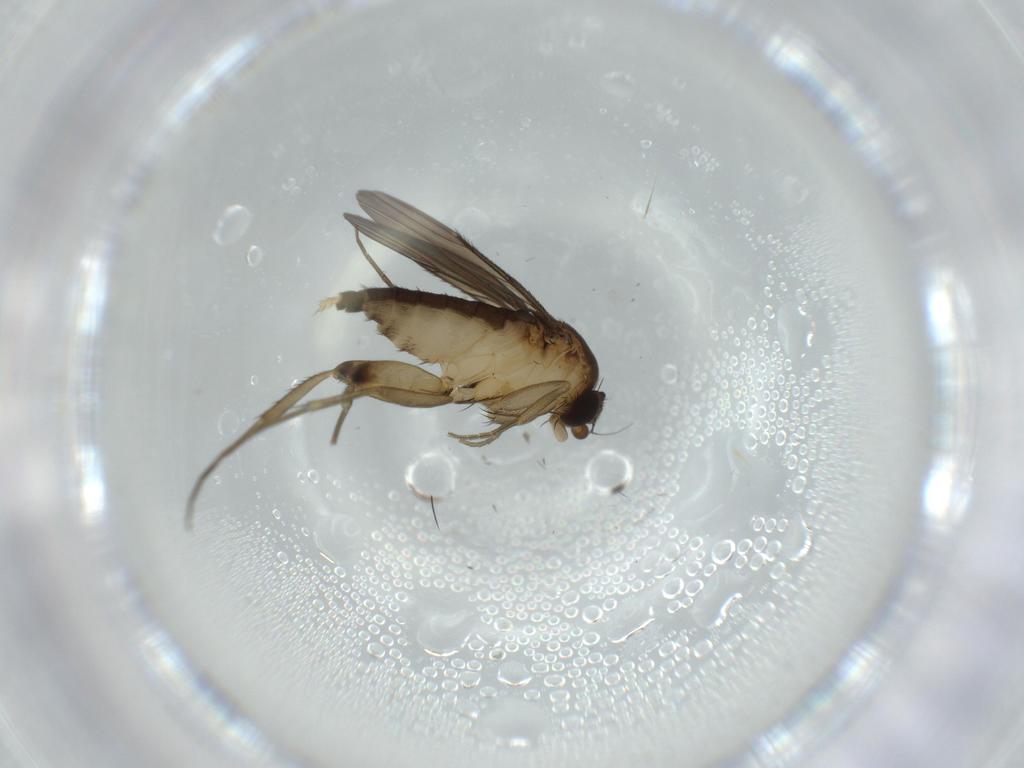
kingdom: Animalia
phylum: Arthropoda
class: Insecta
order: Diptera
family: Phoridae
